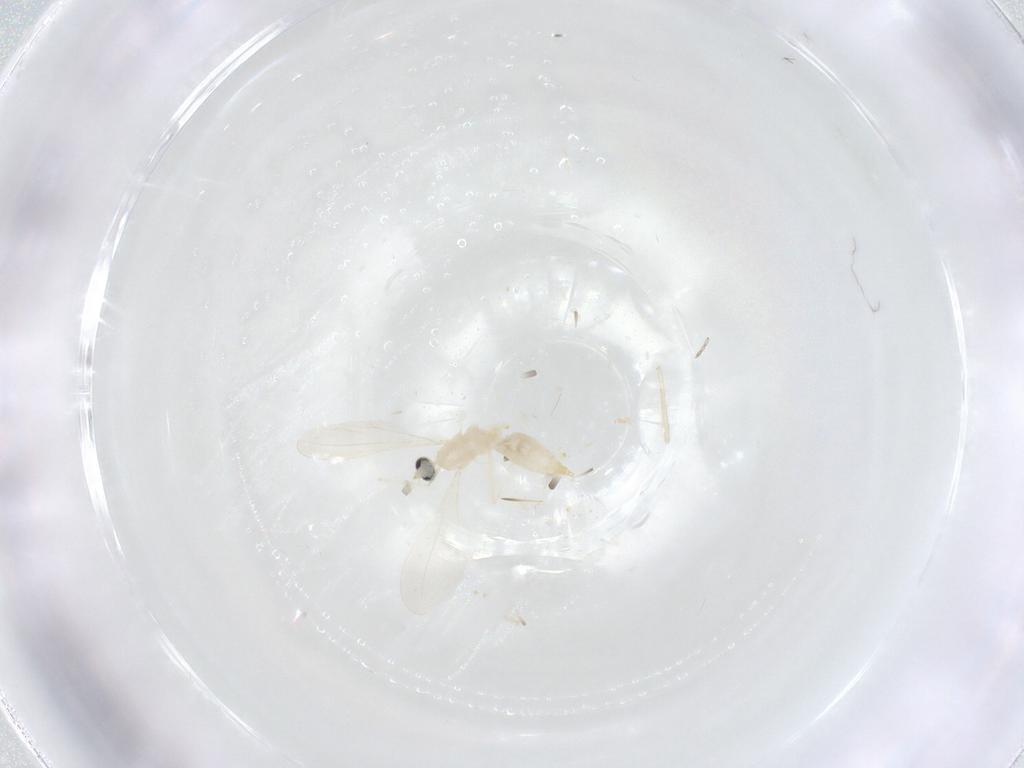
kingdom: Animalia
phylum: Arthropoda
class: Insecta
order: Diptera
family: Cecidomyiidae
